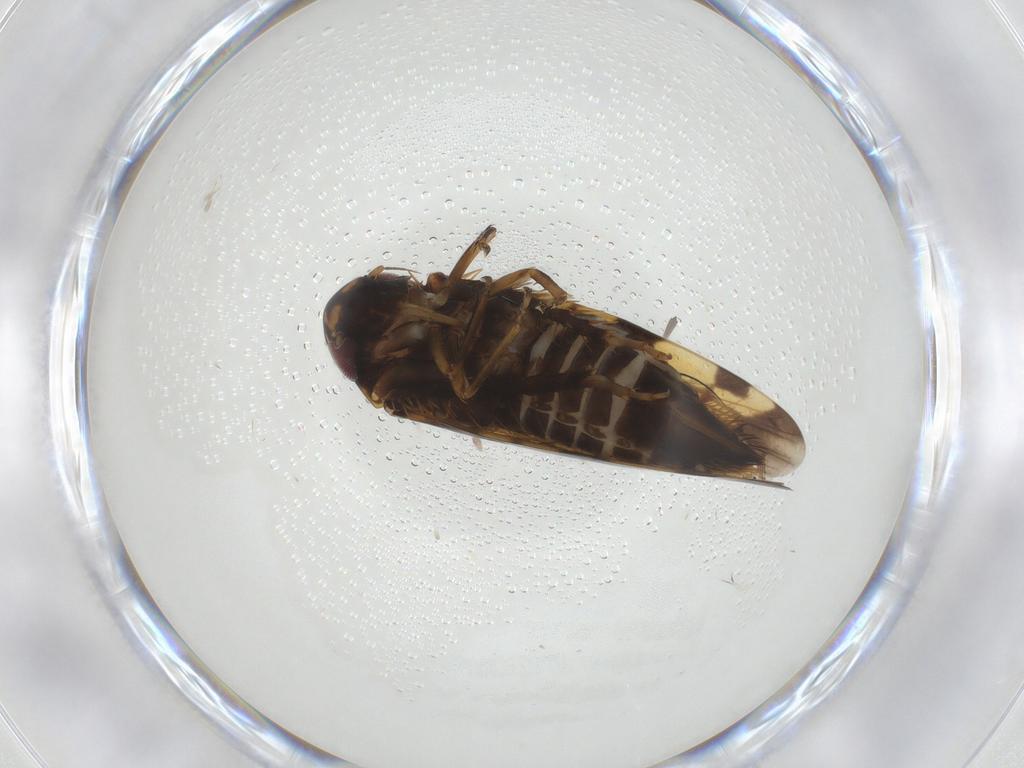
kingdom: Animalia
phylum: Arthropoda
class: Insecta
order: Hemiptera
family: Cicadellidae
